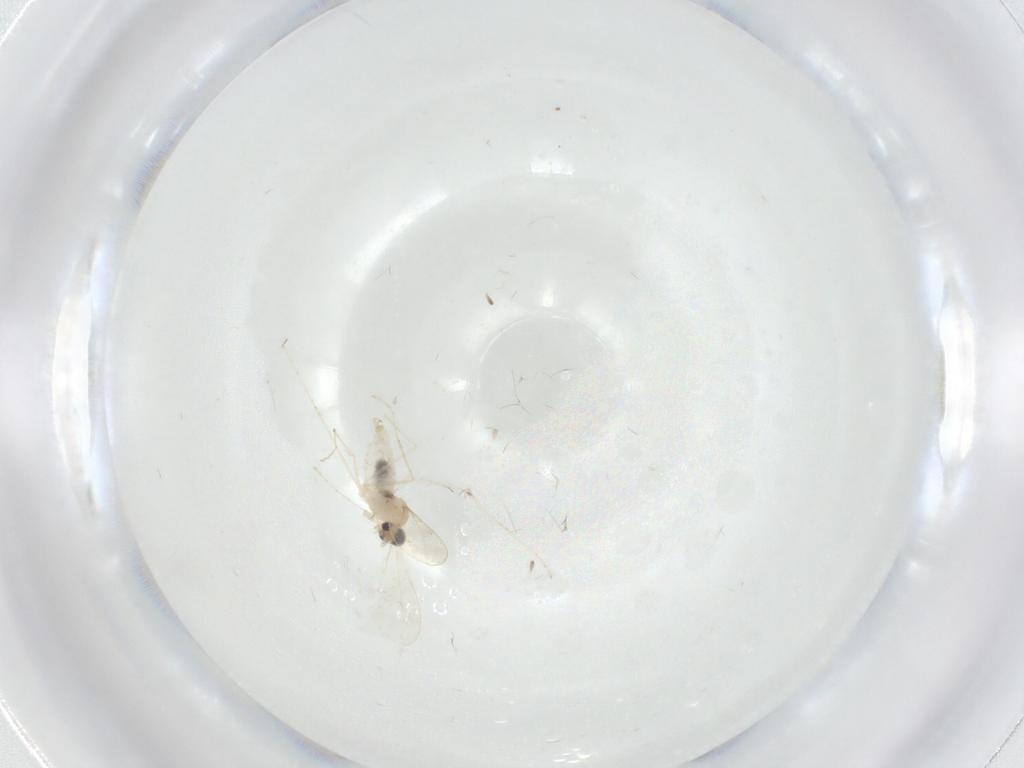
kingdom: Animalia
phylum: Arthropoda
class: Insecta
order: Diptera
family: Cecidomyiidae
